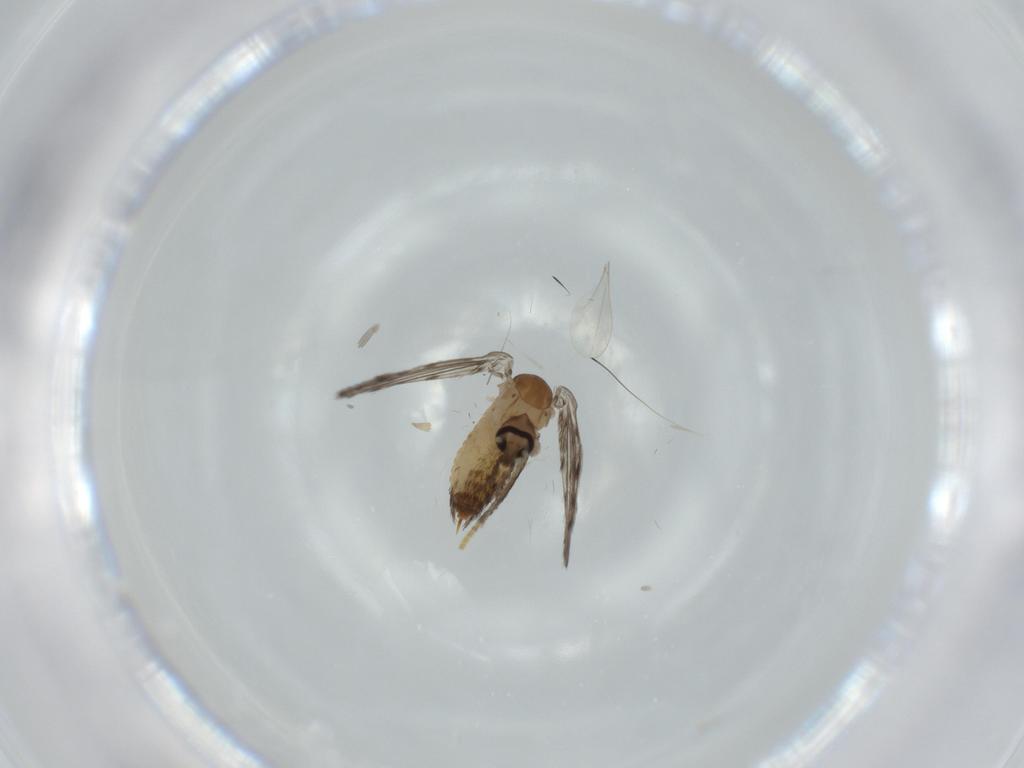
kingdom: Animalia
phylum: Arthropoda
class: Insecta
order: Diptera
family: Psychodidae
